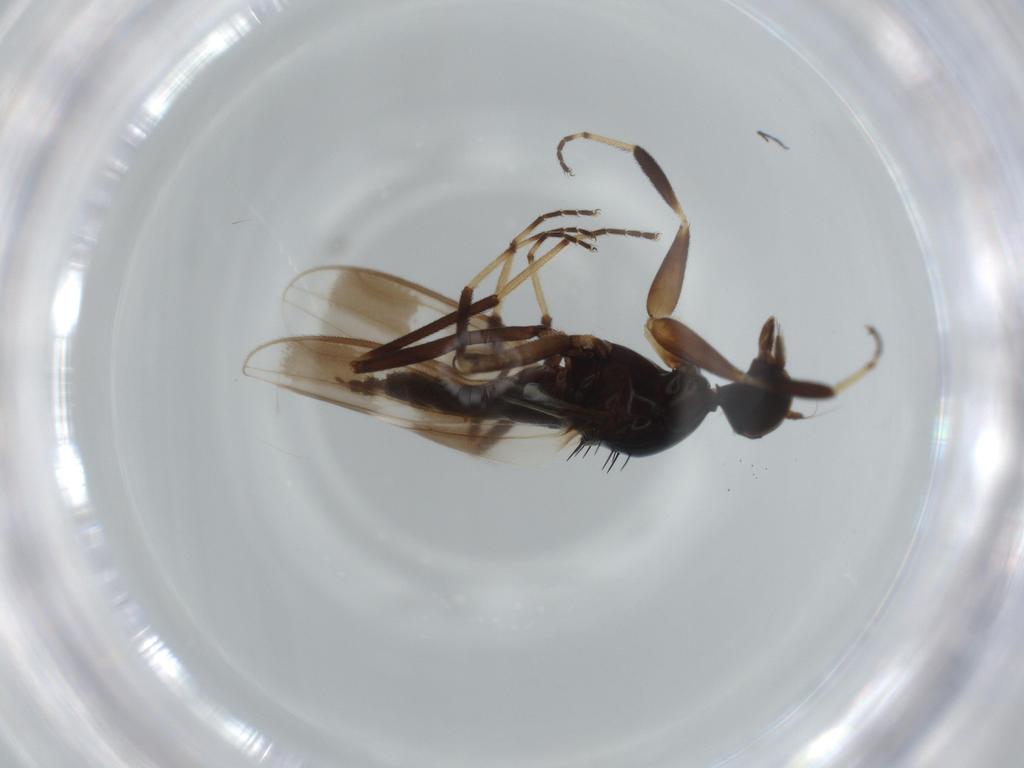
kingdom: Animalia
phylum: Arthropoda
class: Insecta
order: Diptera
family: Hybotidae
